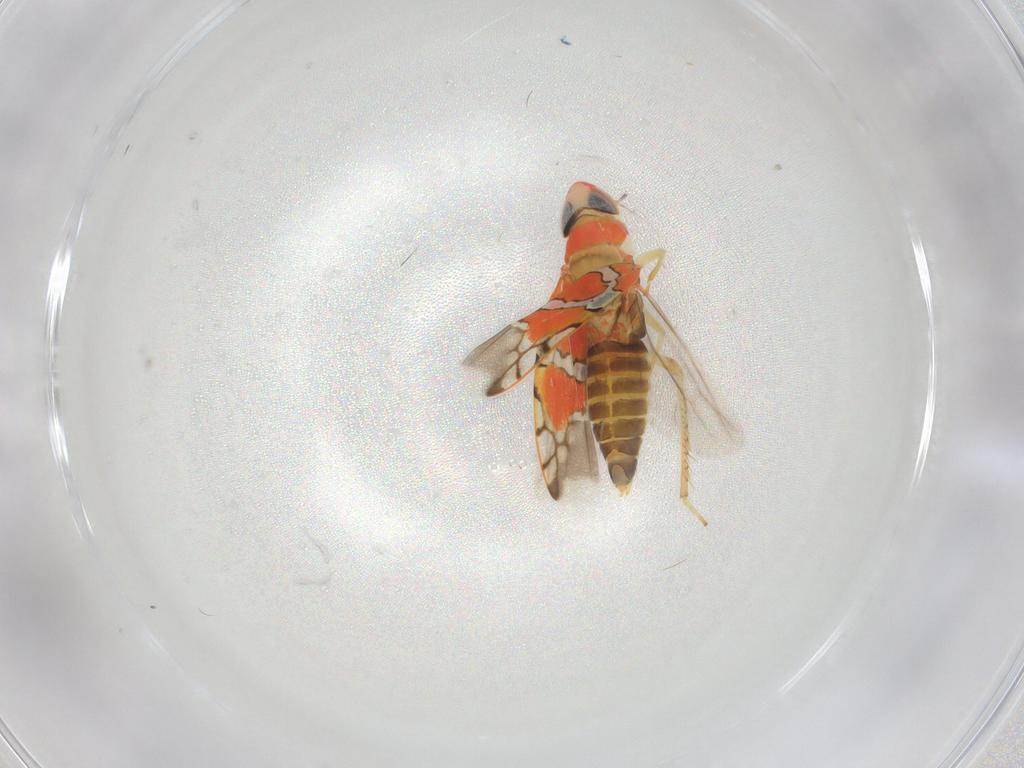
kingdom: Animalia
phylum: Arthropoda
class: Insecta
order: Hemiptera
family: Cicadellidae
